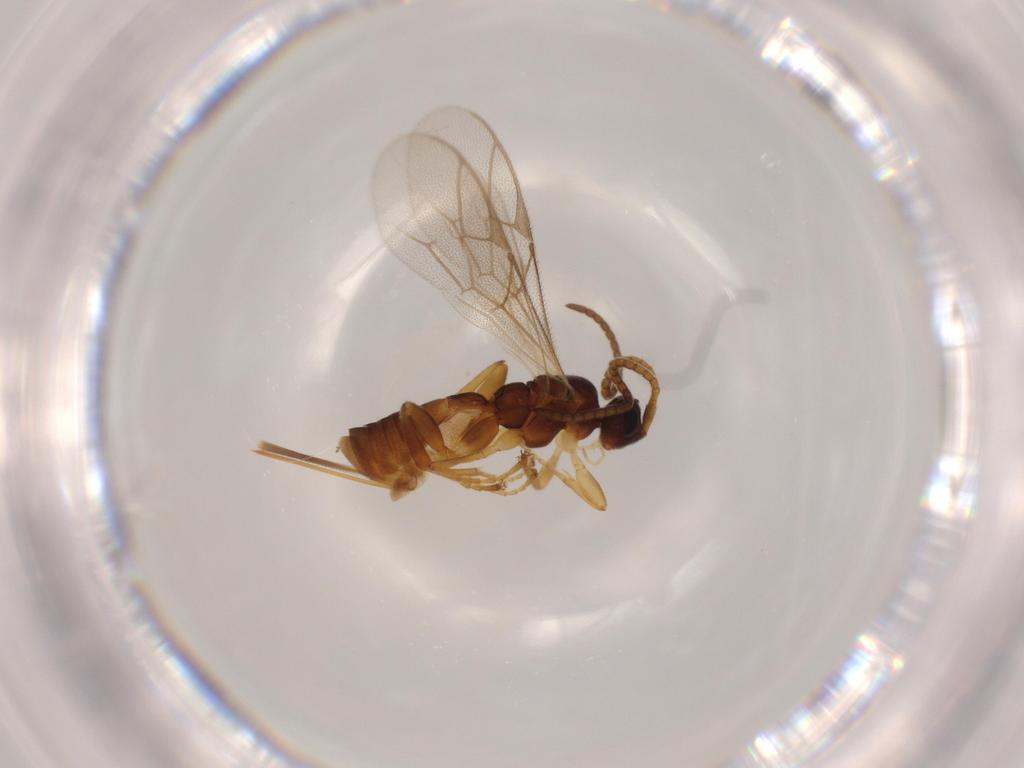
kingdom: Animalia
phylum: Arthropoda
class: Insecta
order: Hymenoptera
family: Ichneumonidae
